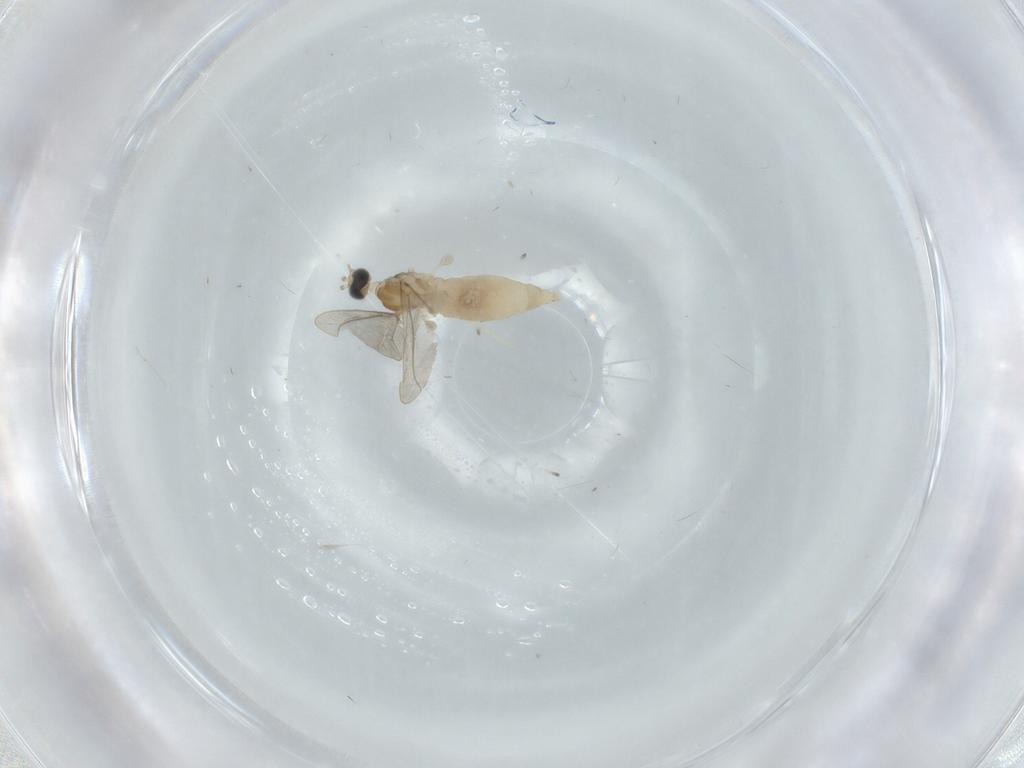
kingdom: Animalia
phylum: Arthropoda
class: Insecta
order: Diptera
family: Cecidomyiidae
